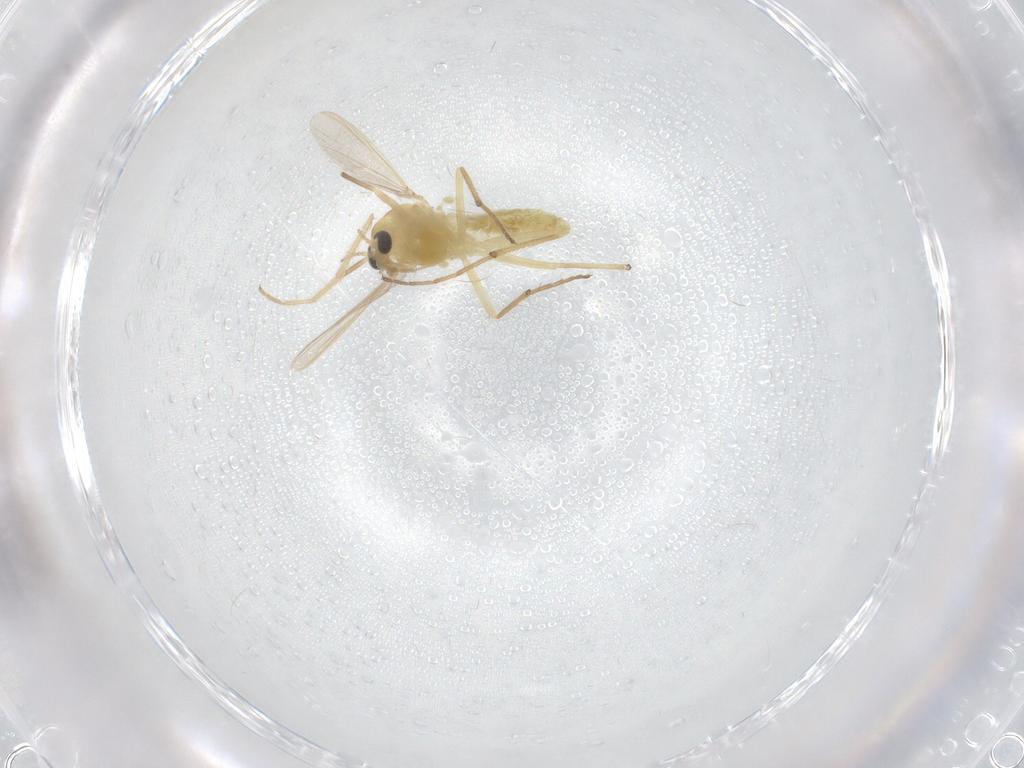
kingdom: Animalia
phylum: Arthropoda
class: Insecta
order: Diptera
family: Chironomidae
